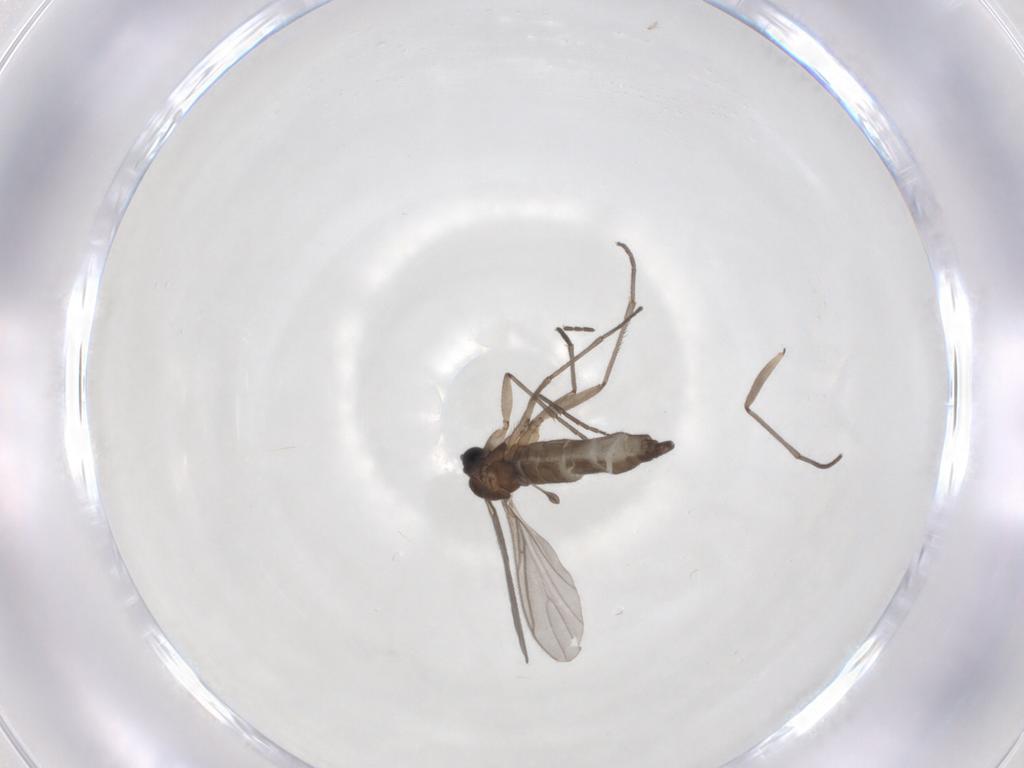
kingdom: Animalia
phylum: Arthropoda
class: Insecta
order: Diptera
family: Sciaridae
